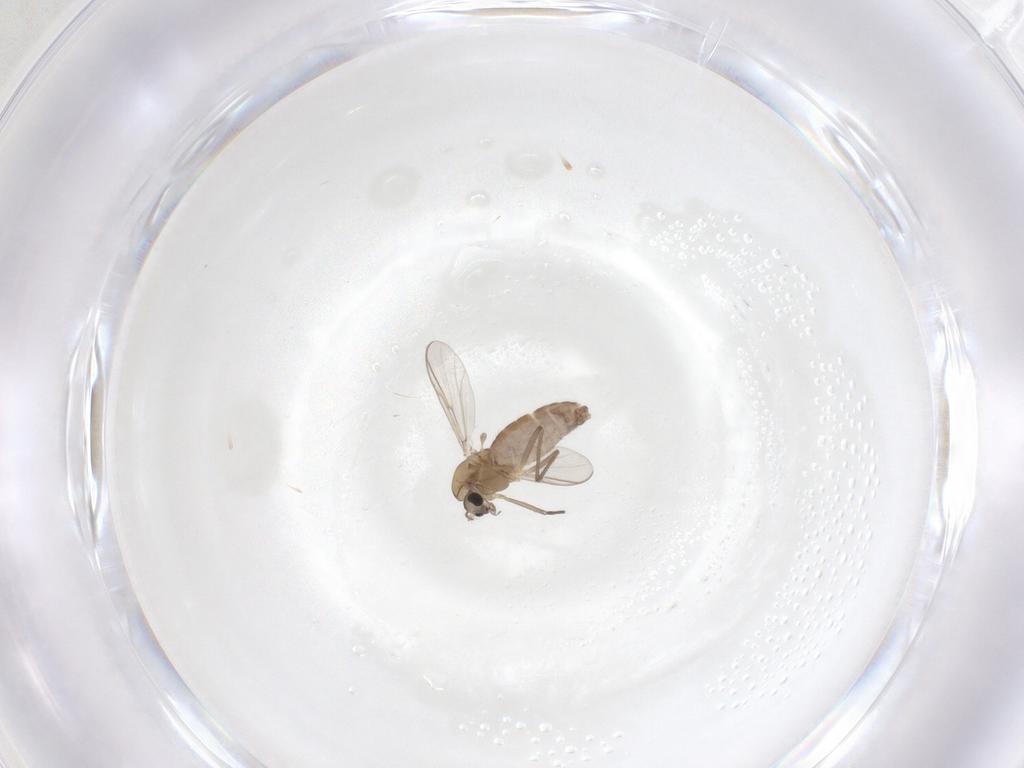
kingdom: Animalia
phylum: Arthropoda
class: Insecta
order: Diptera
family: Chironomidae
